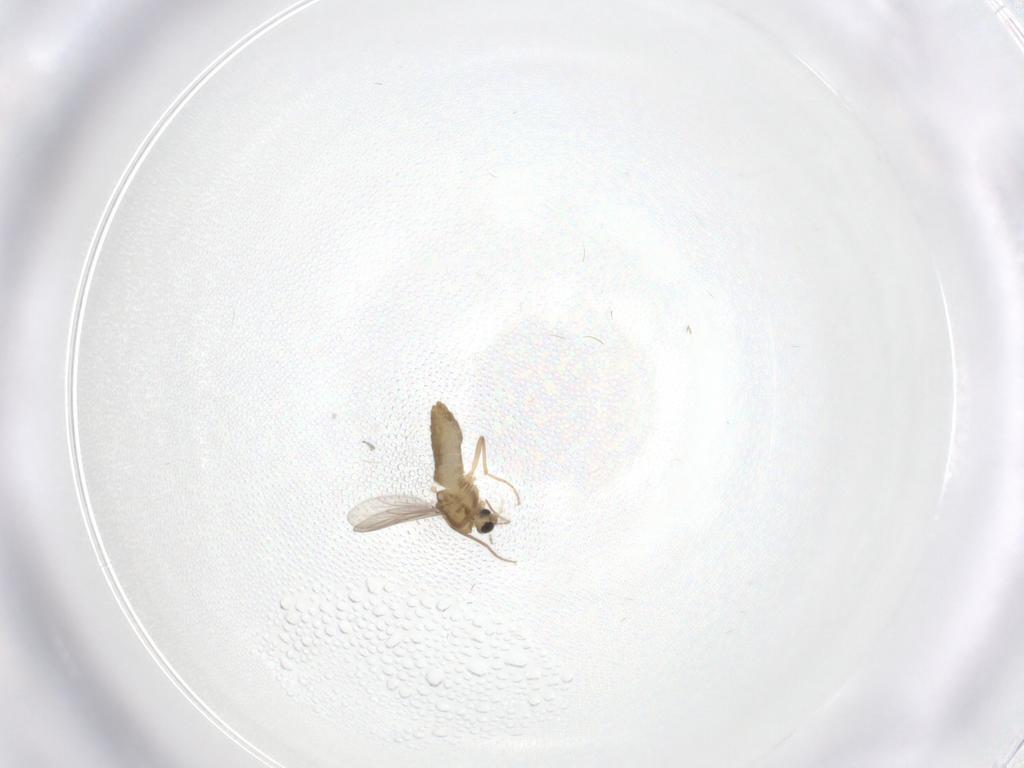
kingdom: Animalia
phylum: Arthropoda
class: Insecta
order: Diptera
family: Chironomidae
